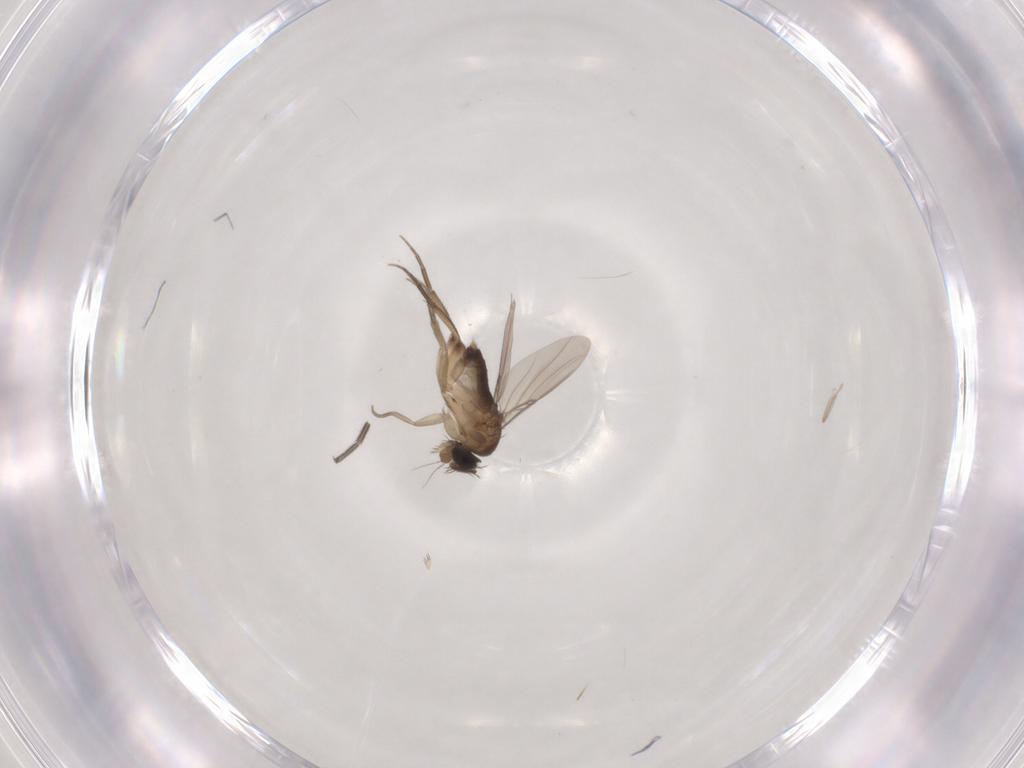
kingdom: Animalia
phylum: Arthropoda
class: Insecta
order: Diptera
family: Phoridae
